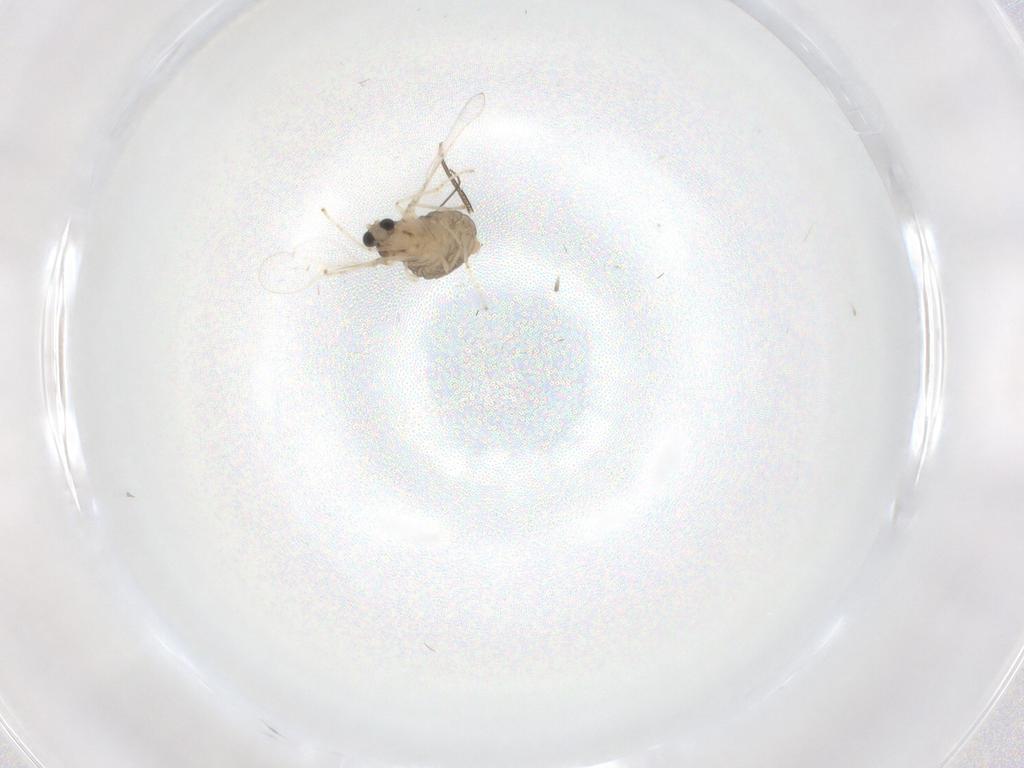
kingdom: Animalia
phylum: Arthropoda
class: Insecta
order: Diptera
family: Cecidomyiidae
